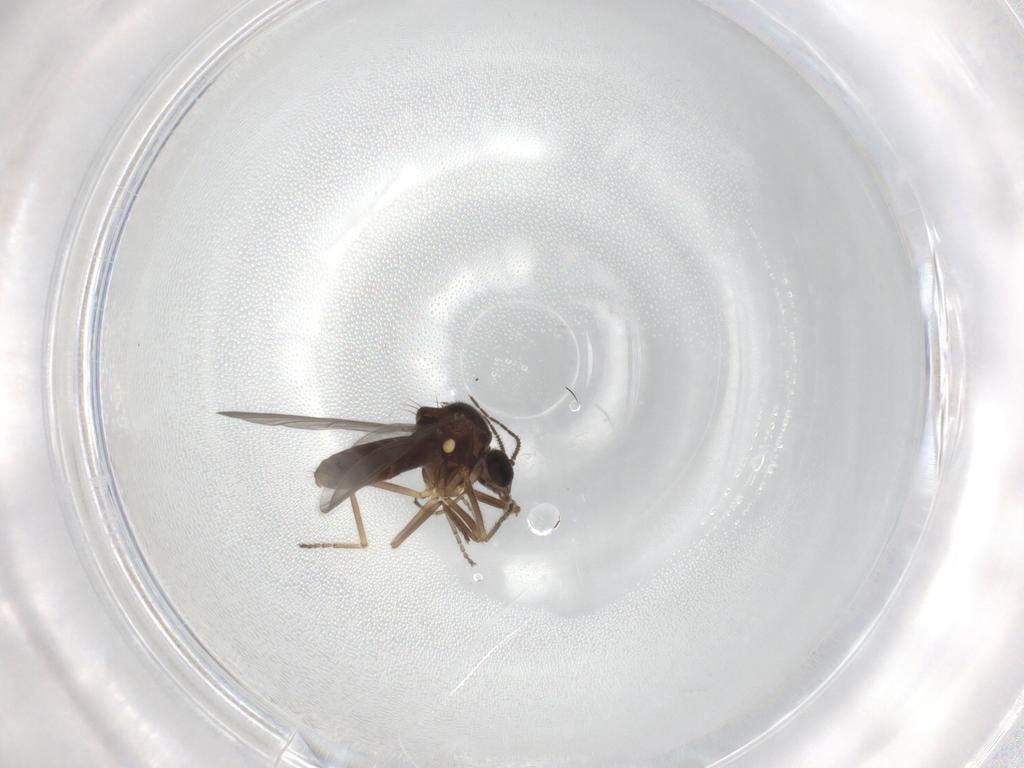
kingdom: Animalia
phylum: Arthropoda
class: Insecta
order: Diptera
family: Ceratopogonidae
